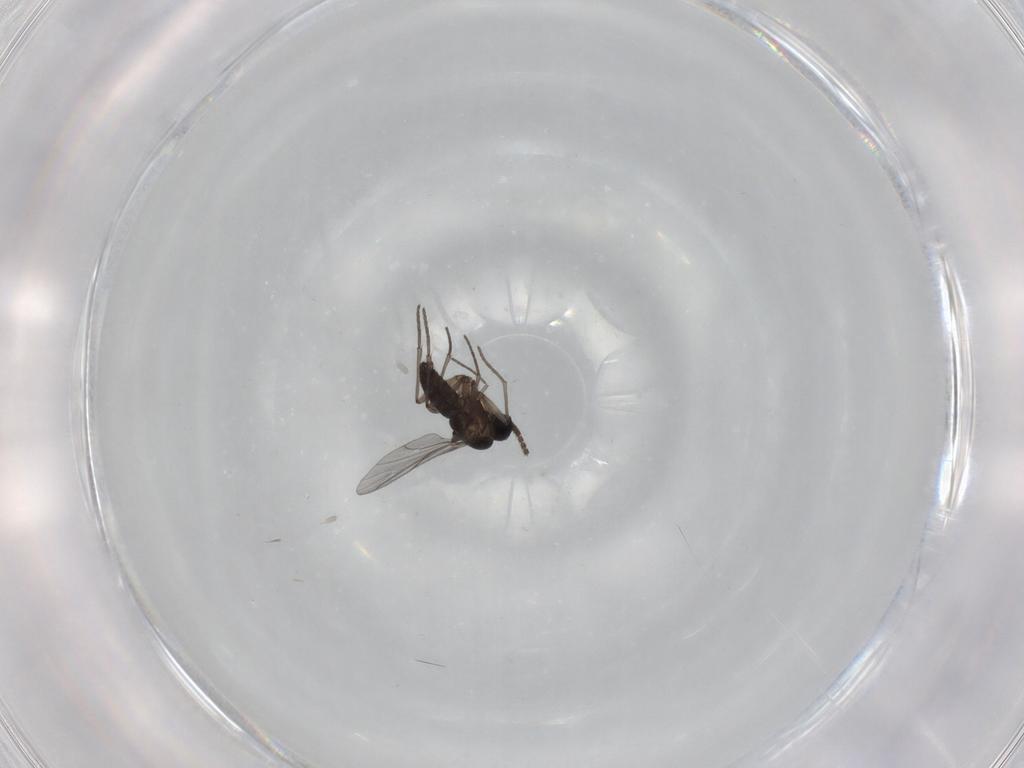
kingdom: Animalia
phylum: Arthropoda
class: Insecta
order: Diptera
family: Sciaridae
